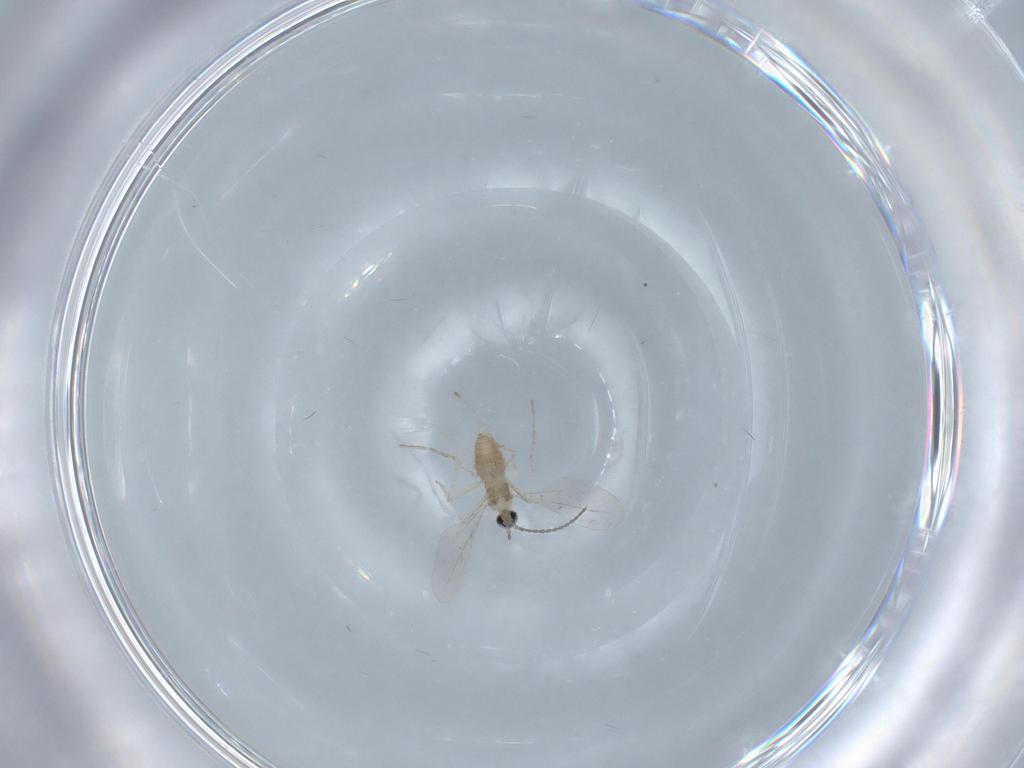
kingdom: Animalia
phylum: Arthropoda
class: Insecta
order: Diptera
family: Cecidomyiidae
